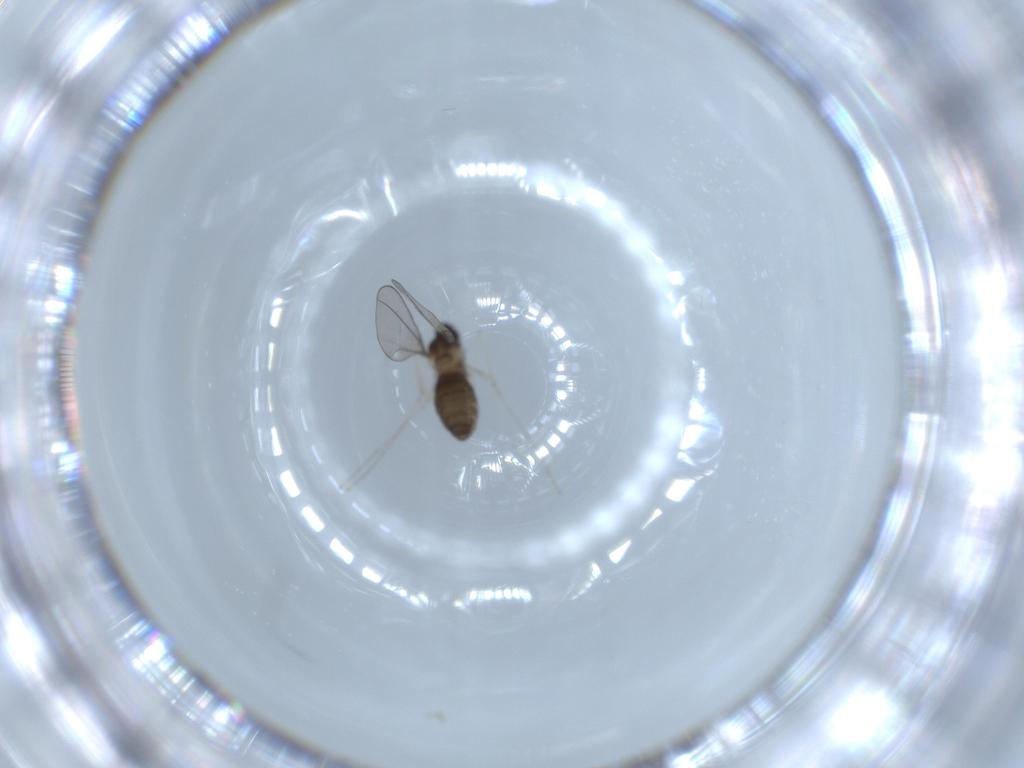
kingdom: Animalia
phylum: Arthropoda
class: Insecta
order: Diptera
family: Cecidomyiidae
